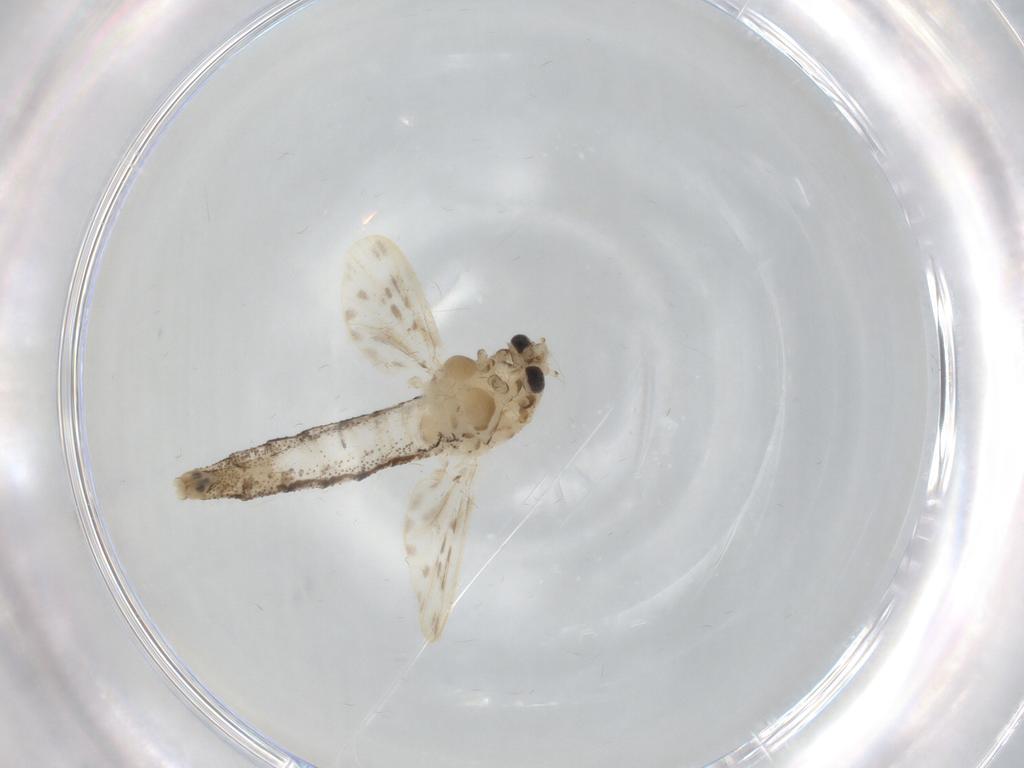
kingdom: Animalia
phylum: Arthropoda
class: Insecta
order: Diptera
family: Chaoboridae
